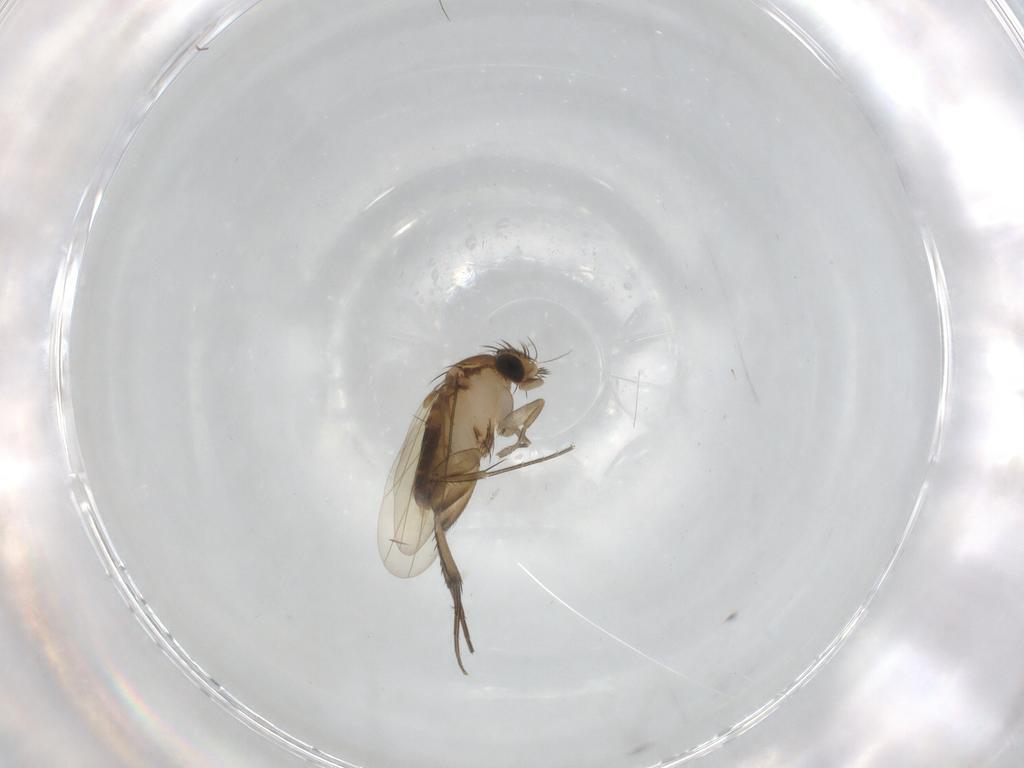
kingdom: Animalia
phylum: Arthropoda
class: Insecta
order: Diptera
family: Phoridae
